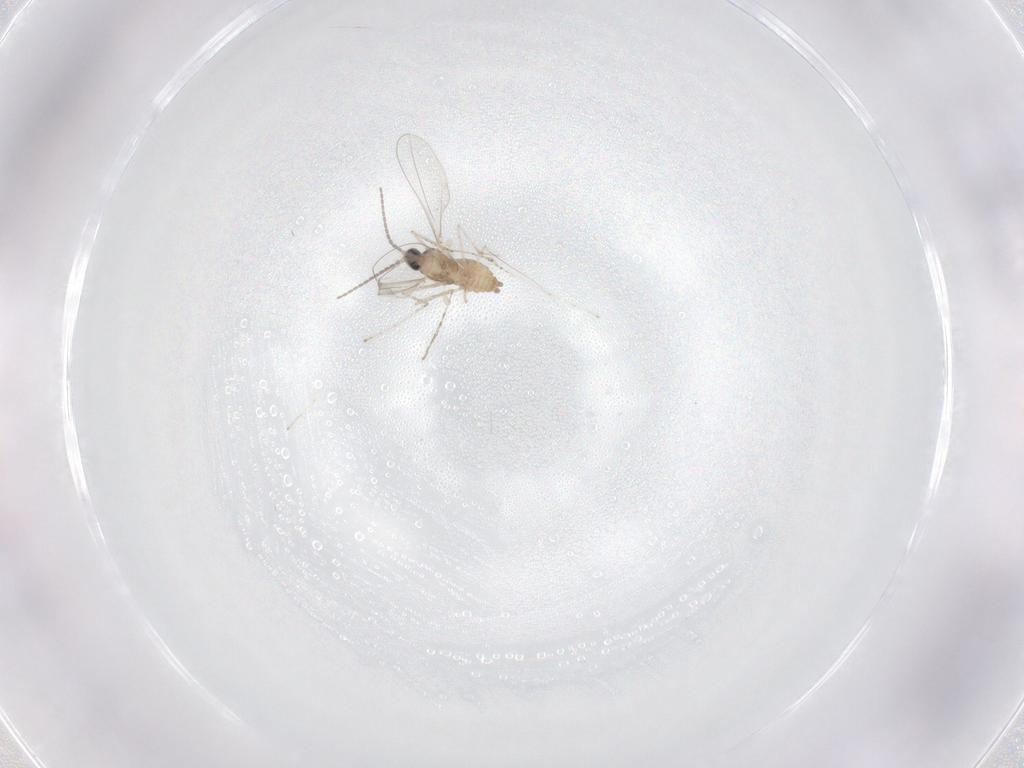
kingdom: Animalia
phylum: Arthropoda
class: Insecta
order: Diptera
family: Cecidomyiidae
